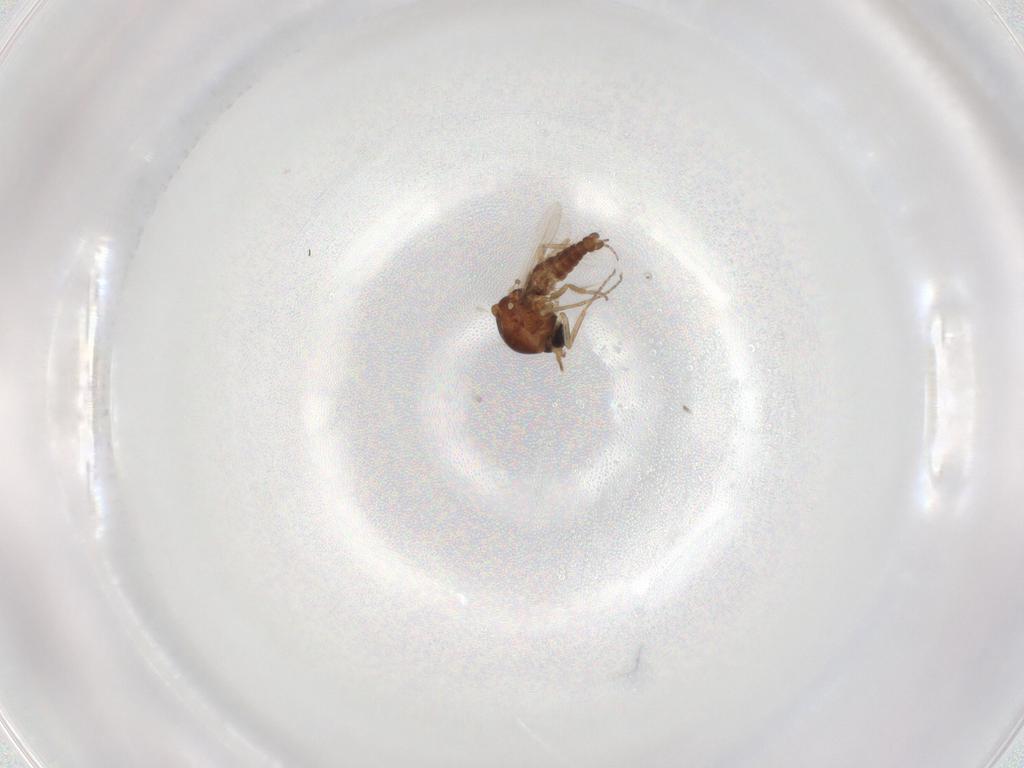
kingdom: Animalia
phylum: Arthropoda
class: Insecta
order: Diptera
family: Ceratopogonidae
